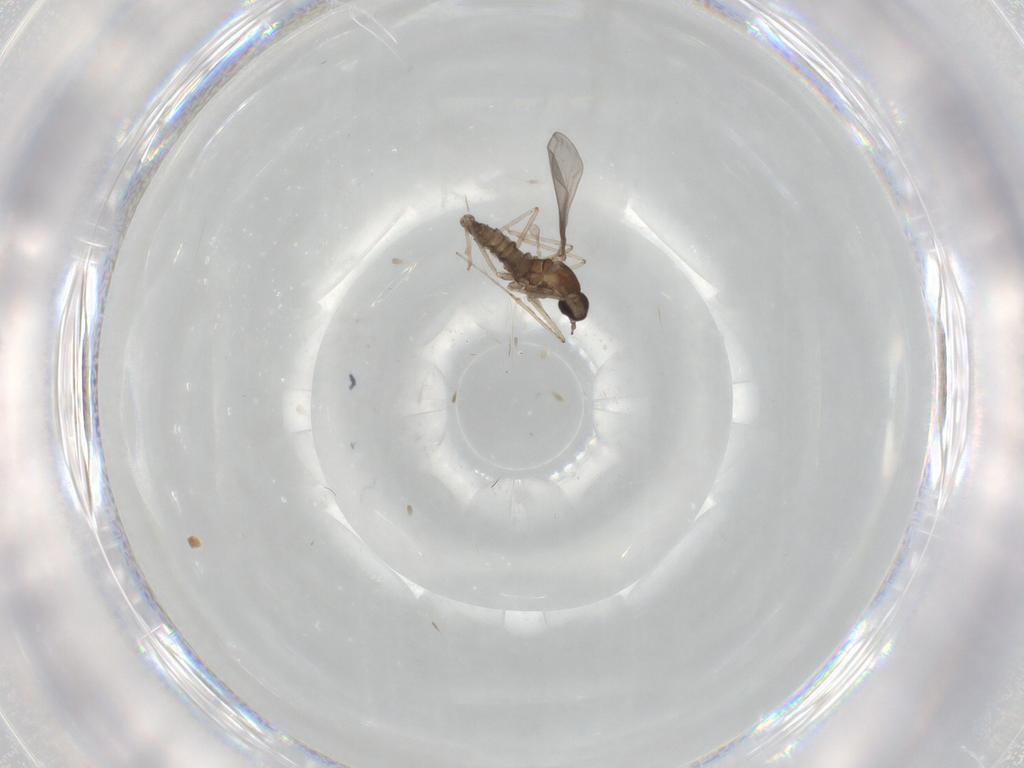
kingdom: Animalia
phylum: Arthropoda
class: Insecta
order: Diptera
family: Cecidomyiidae
